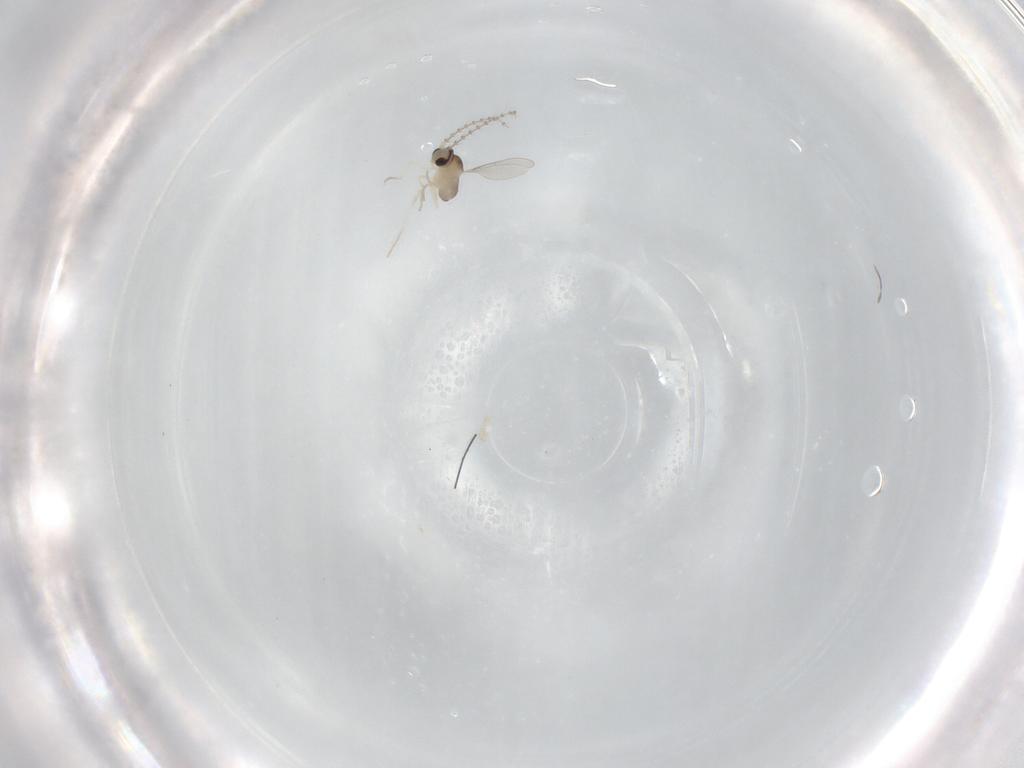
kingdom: Animalia
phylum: Arthropoda
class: Insecta
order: Diptera
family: Cecidomyiidae
